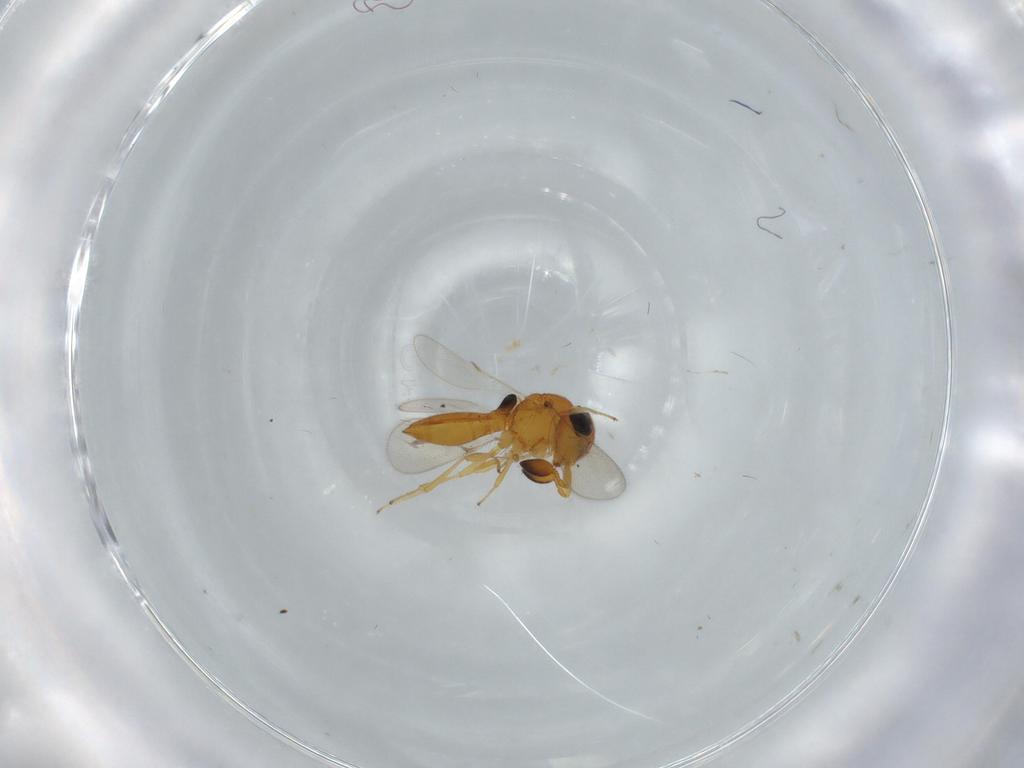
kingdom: Animalia
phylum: Arthropoda
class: Insecta
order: Hymenoptera
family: Scelionidae
